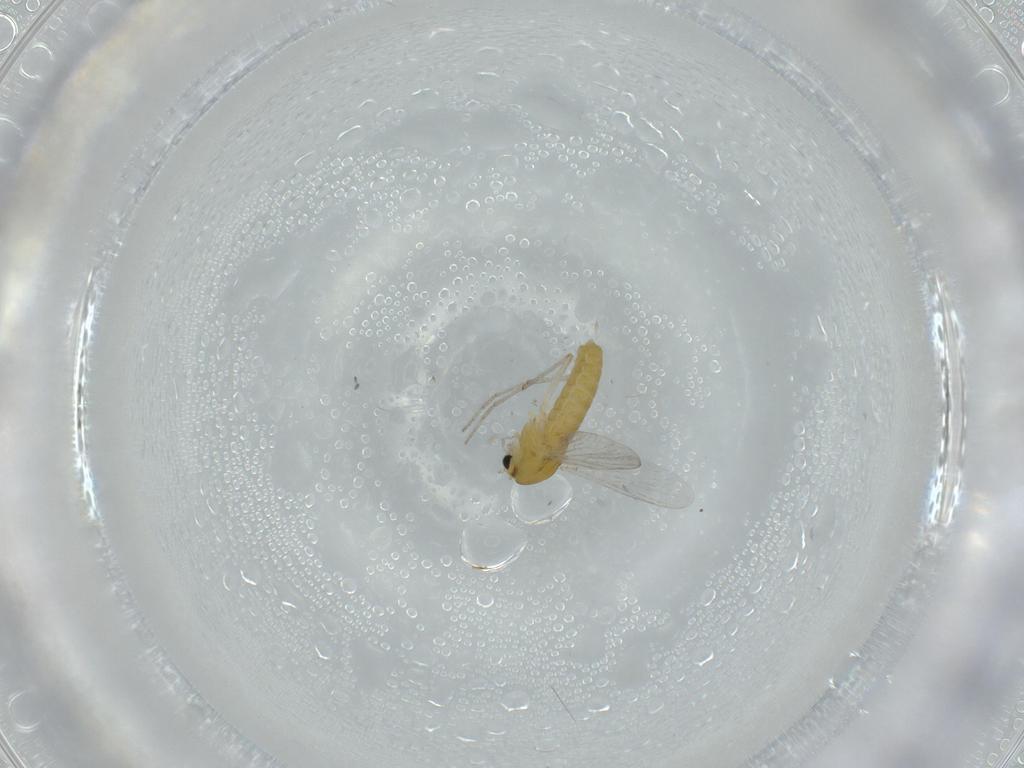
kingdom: Animalia
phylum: Arthropoda
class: Insecta
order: Diptera
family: Chironomidae
